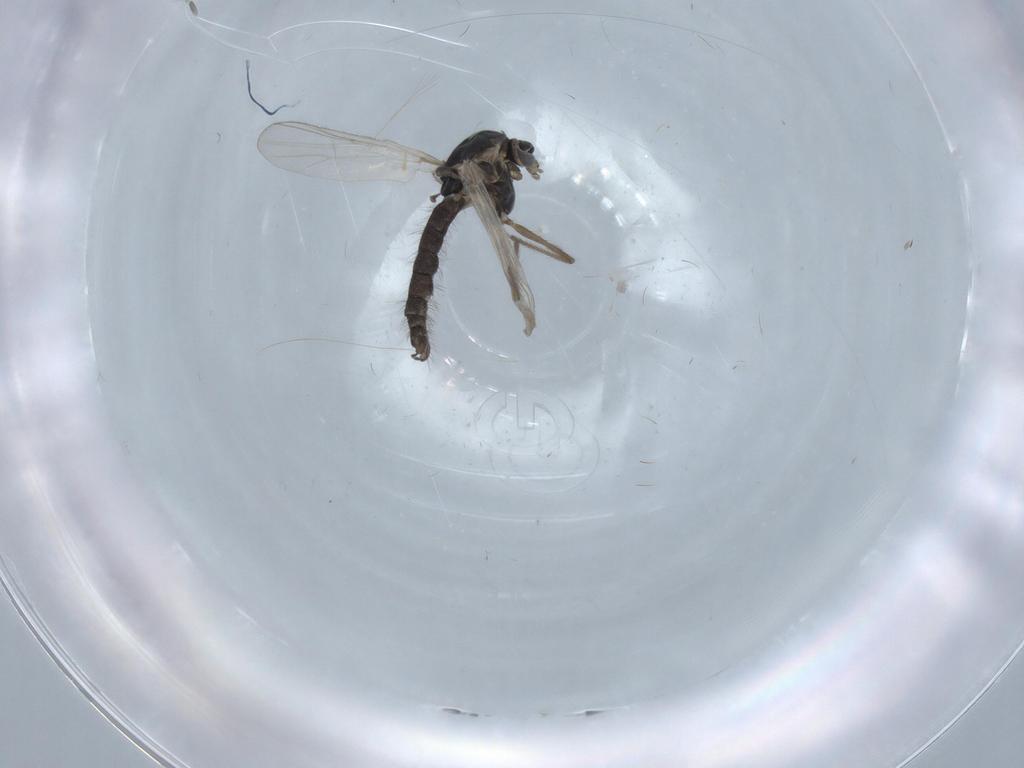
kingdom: Animalia
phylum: Arthropoda
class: Insecta
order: Diptera
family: Chironomidae
